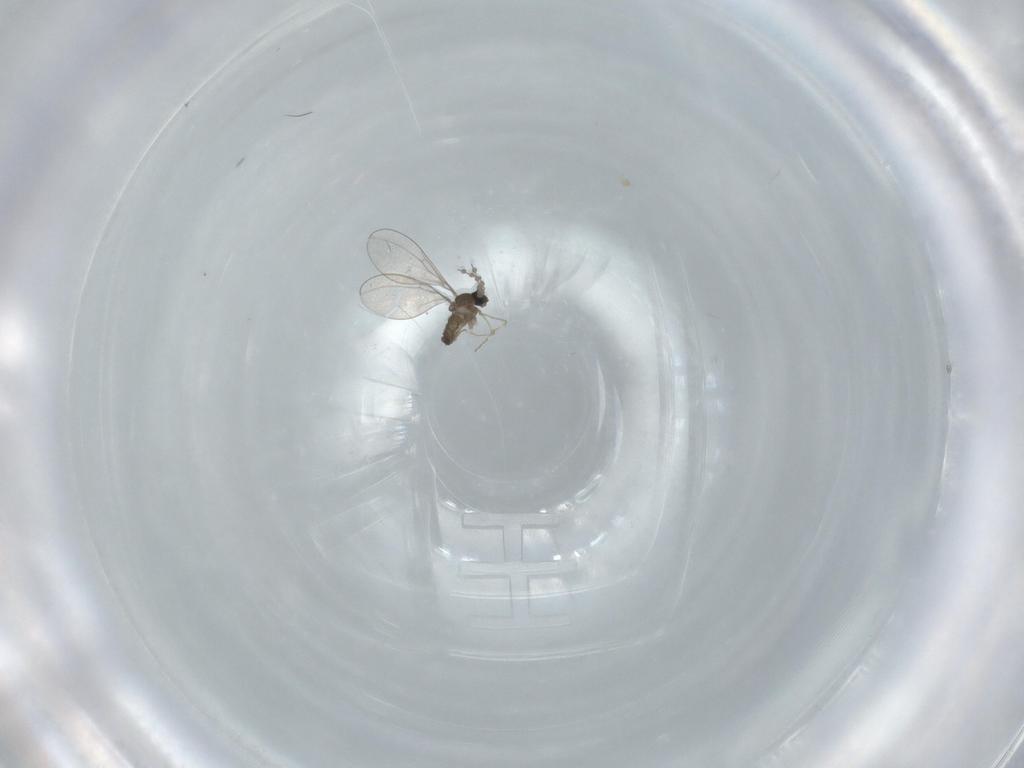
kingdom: Animalia
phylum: Arthropoda
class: Insecta
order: Diptera
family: Cecidomyiidae
